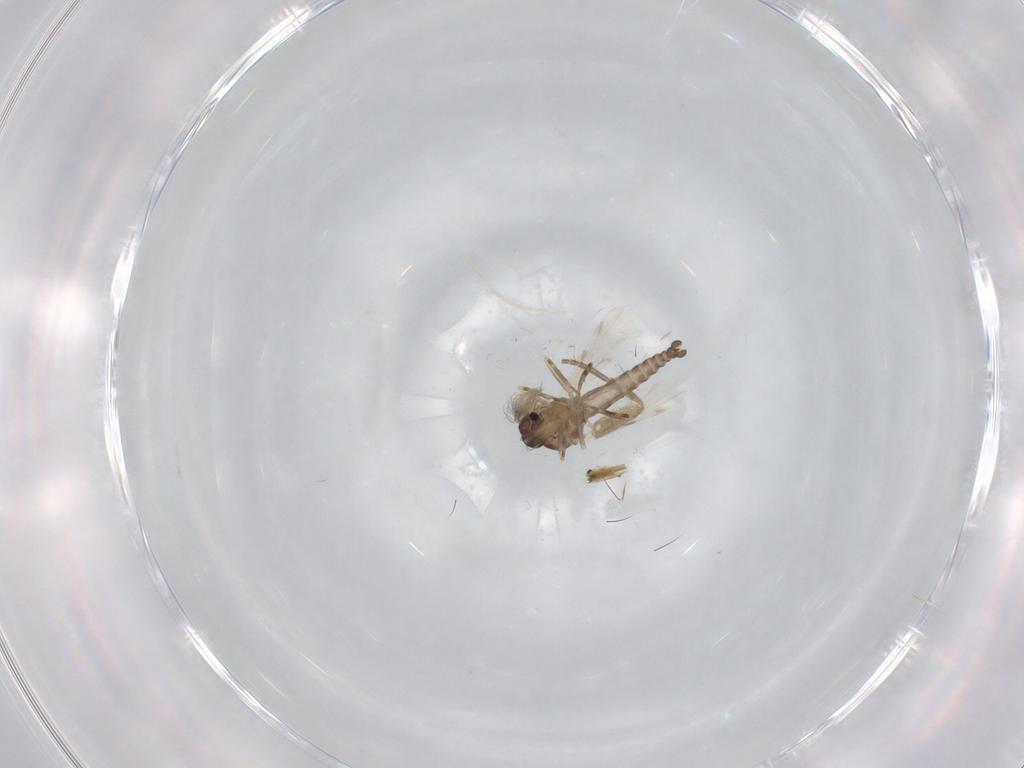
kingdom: Animalia
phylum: Arthropoda
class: Insecta
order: Diptera
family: Ceratopogonidae
